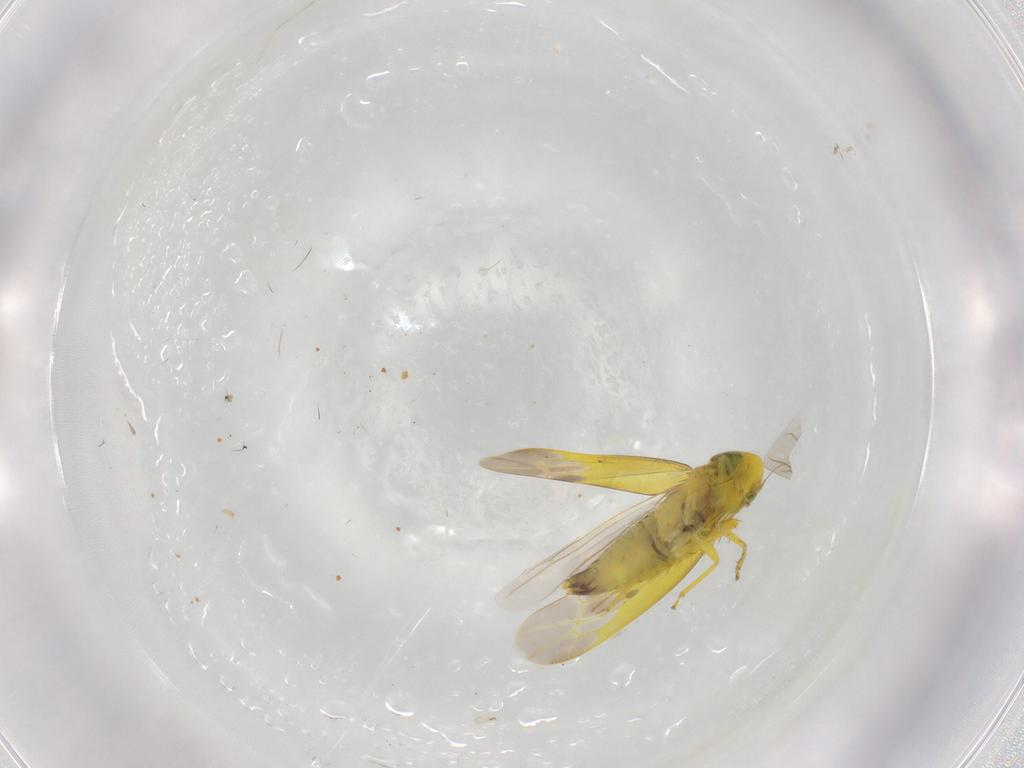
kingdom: Animalia
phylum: Arthropoda
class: Insecta
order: Hemiptera
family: Cicadellidae
